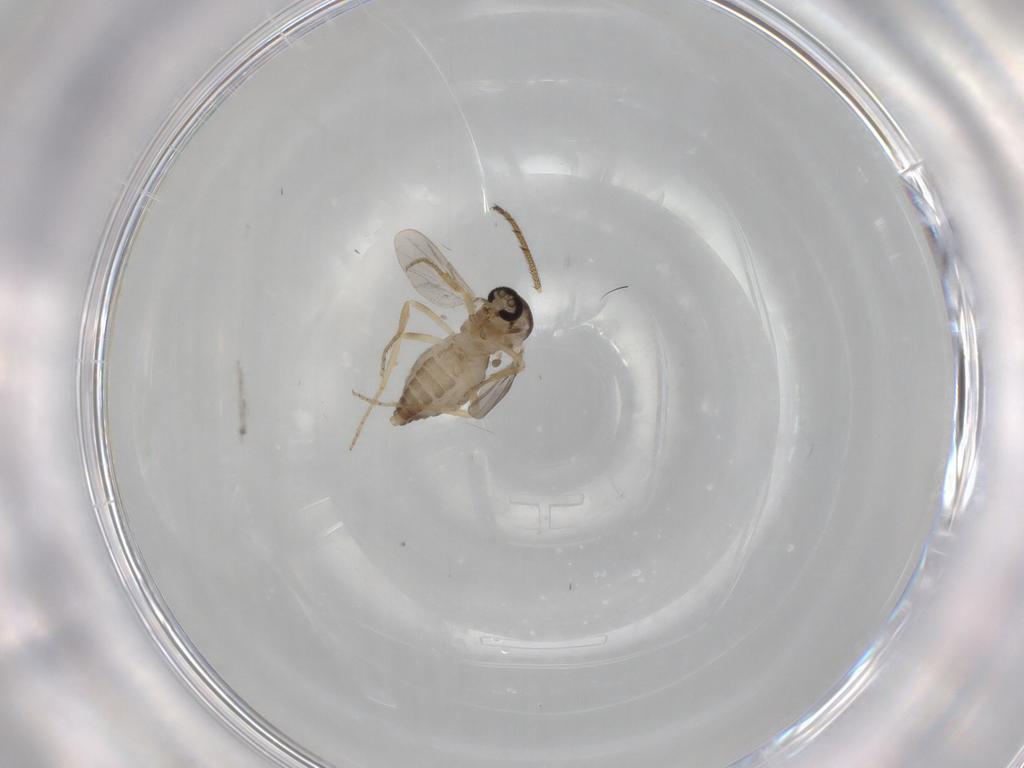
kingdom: Animalia
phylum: Arthropoda
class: Insecta
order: Diptera
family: Ceratopogonidae
